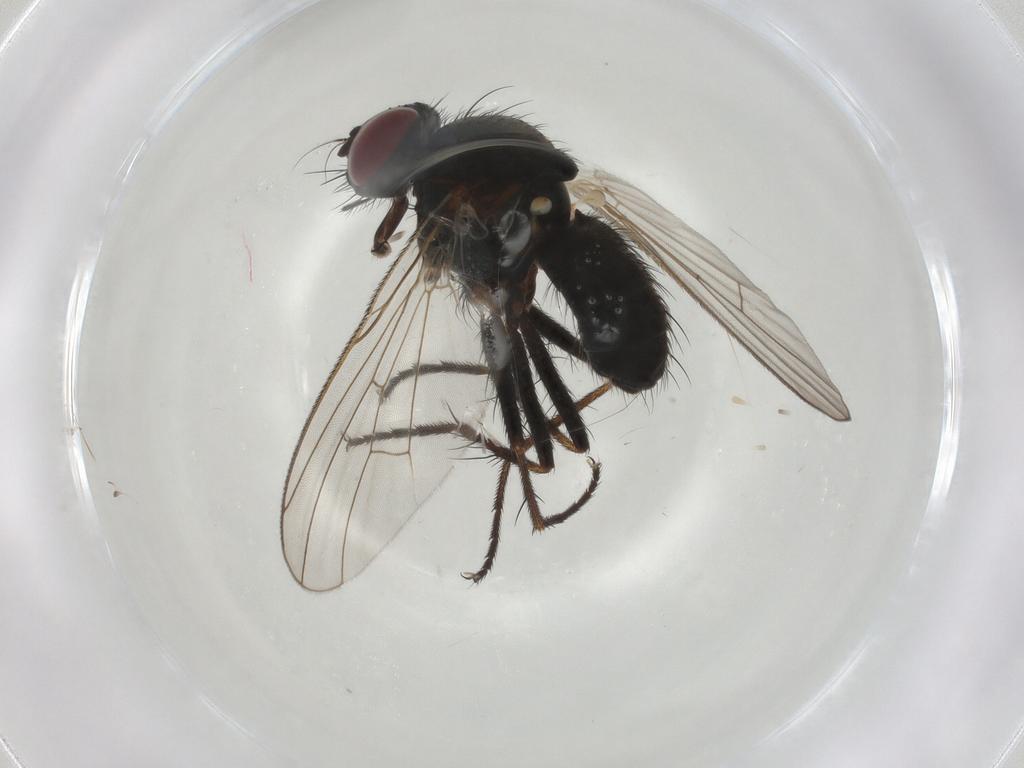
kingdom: Animalia
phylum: Arthropoda
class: Insecta
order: Diptera
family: Muscidae
